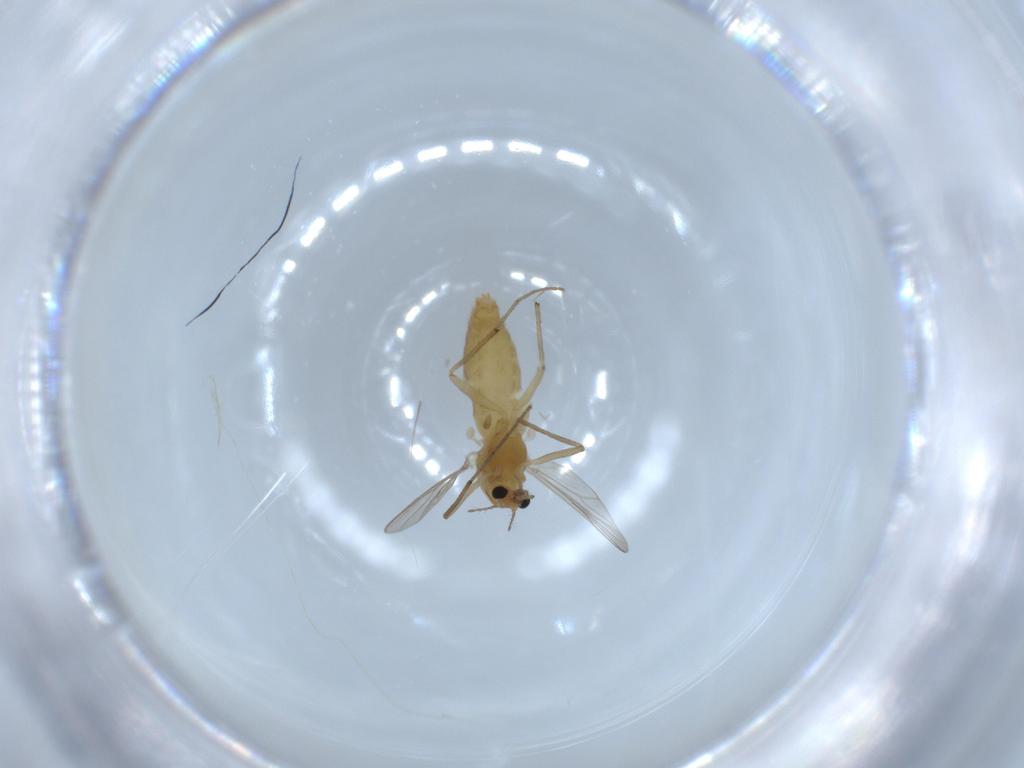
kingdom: Animalia
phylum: Arthropoda
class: Insecta
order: Diptera
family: Chironomidae
